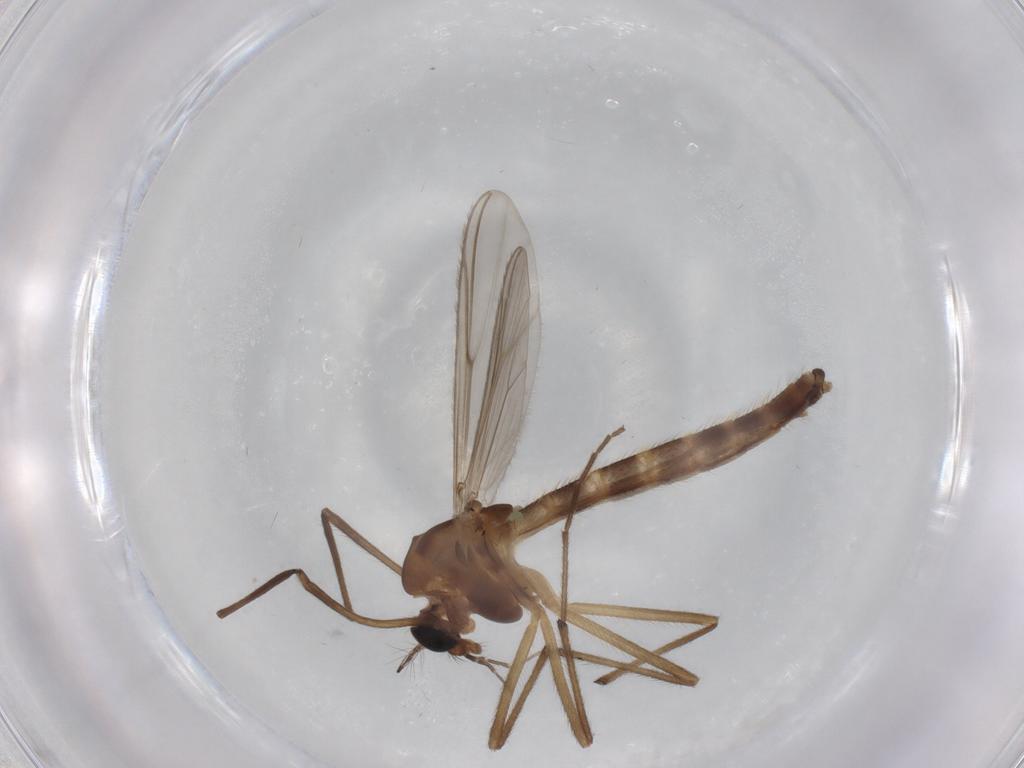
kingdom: Animalia
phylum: Arthropoda
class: Insecta
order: Diptera
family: Chironomidae
